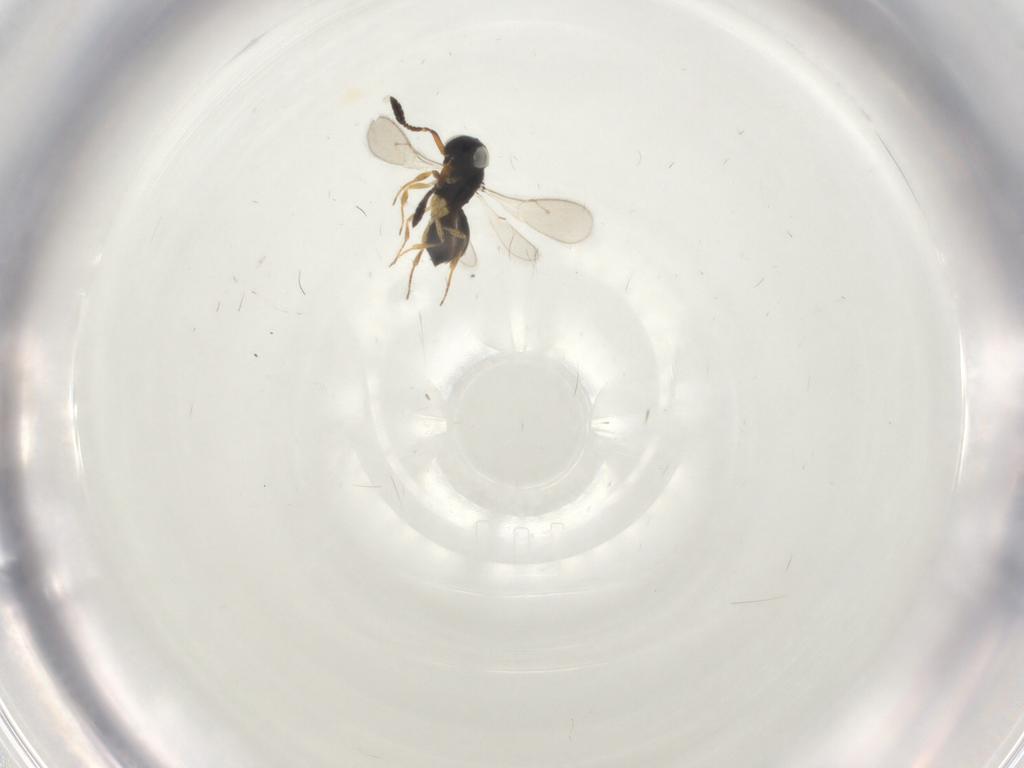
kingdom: Animalia
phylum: Arthropoda
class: Insecta
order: Hymenoptera
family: Scelionidae
